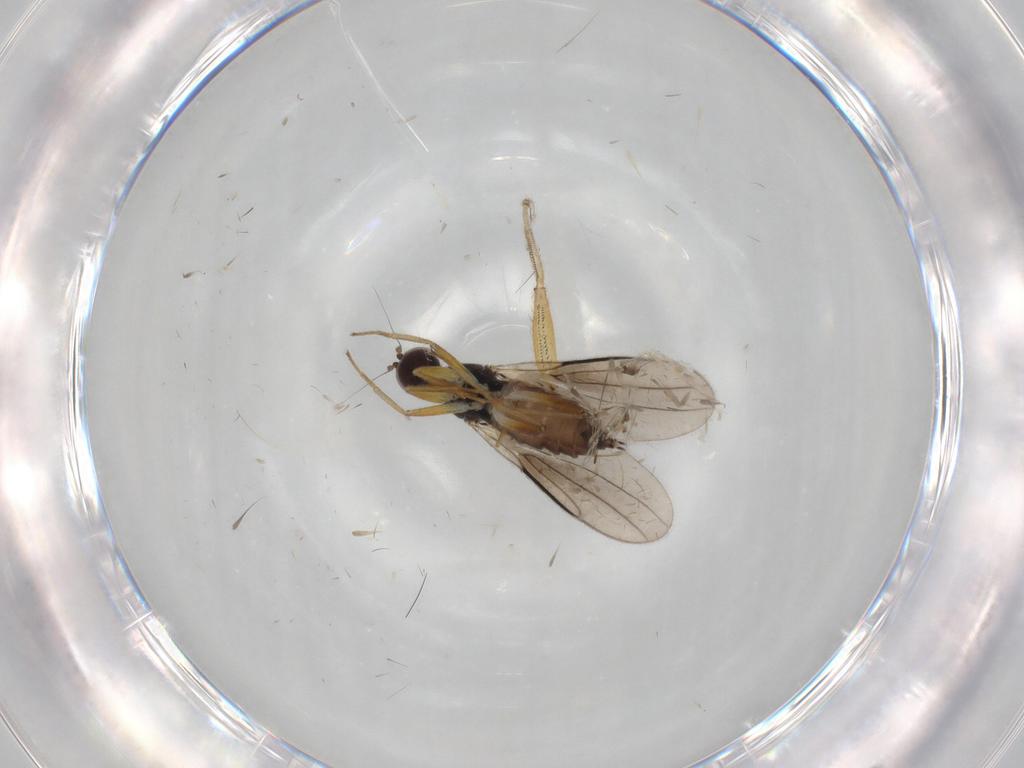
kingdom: Animalia
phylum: Arthropoda
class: Insecta
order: Diptera
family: Hybotidae
